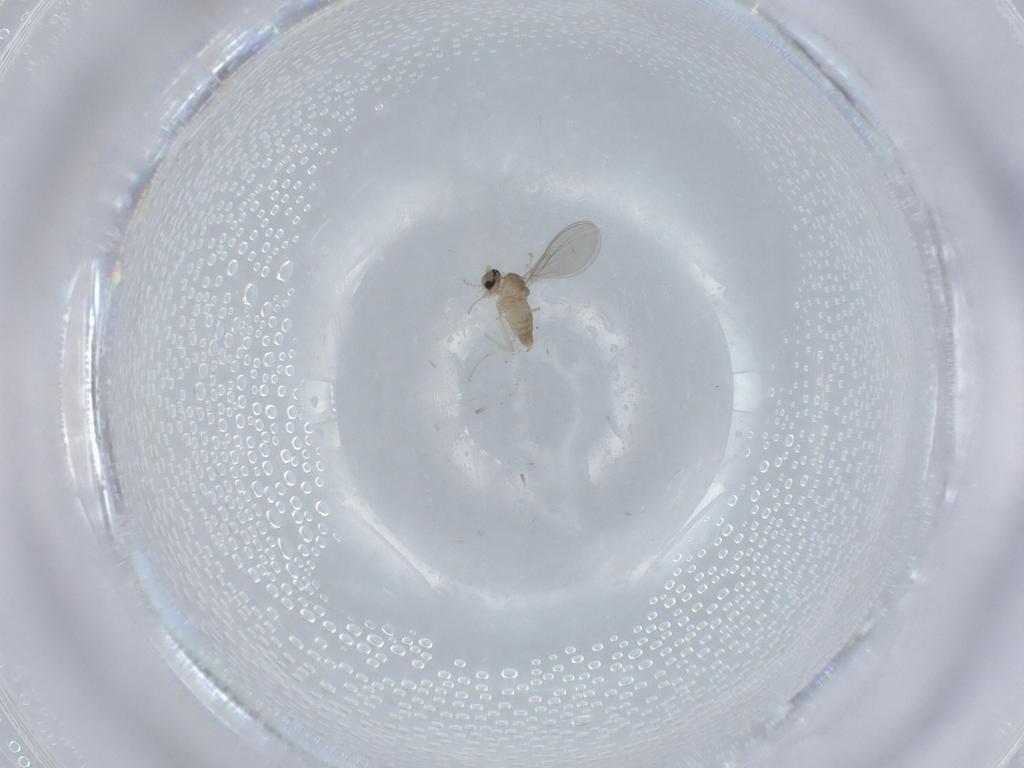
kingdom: Animalia
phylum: Arthropoda
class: Insecta
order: Diptera
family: Cecidomyiidae
